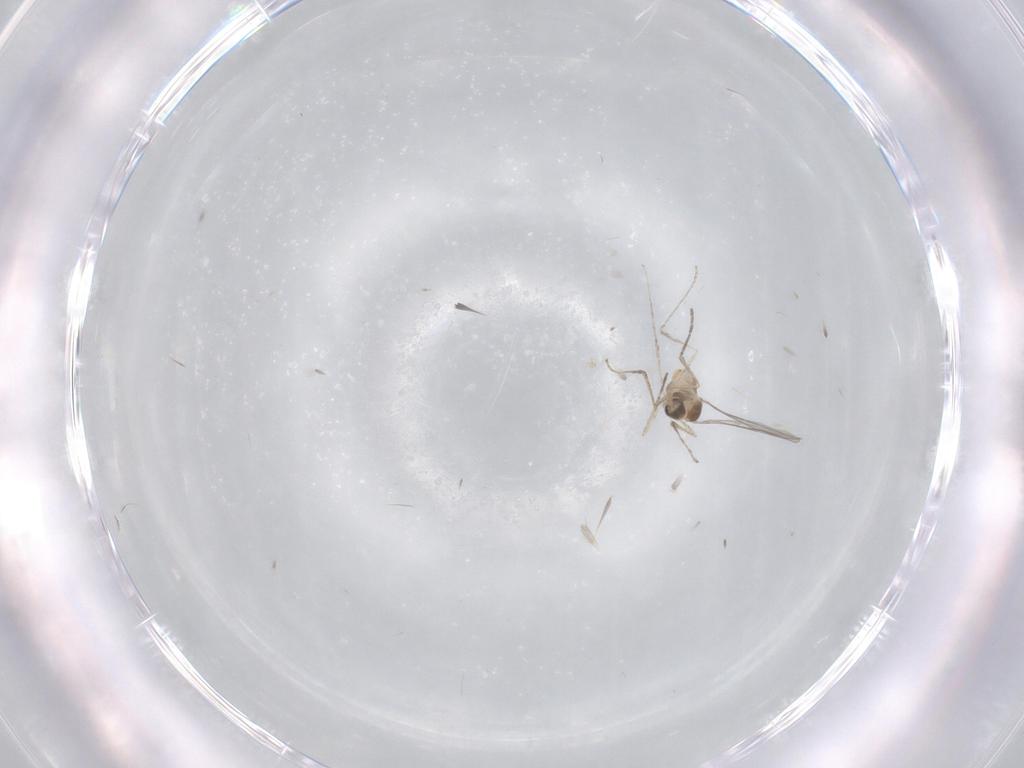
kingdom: Animalia
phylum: Arthropoda
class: Insecta
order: Diptera
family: Cecidomyiidae
